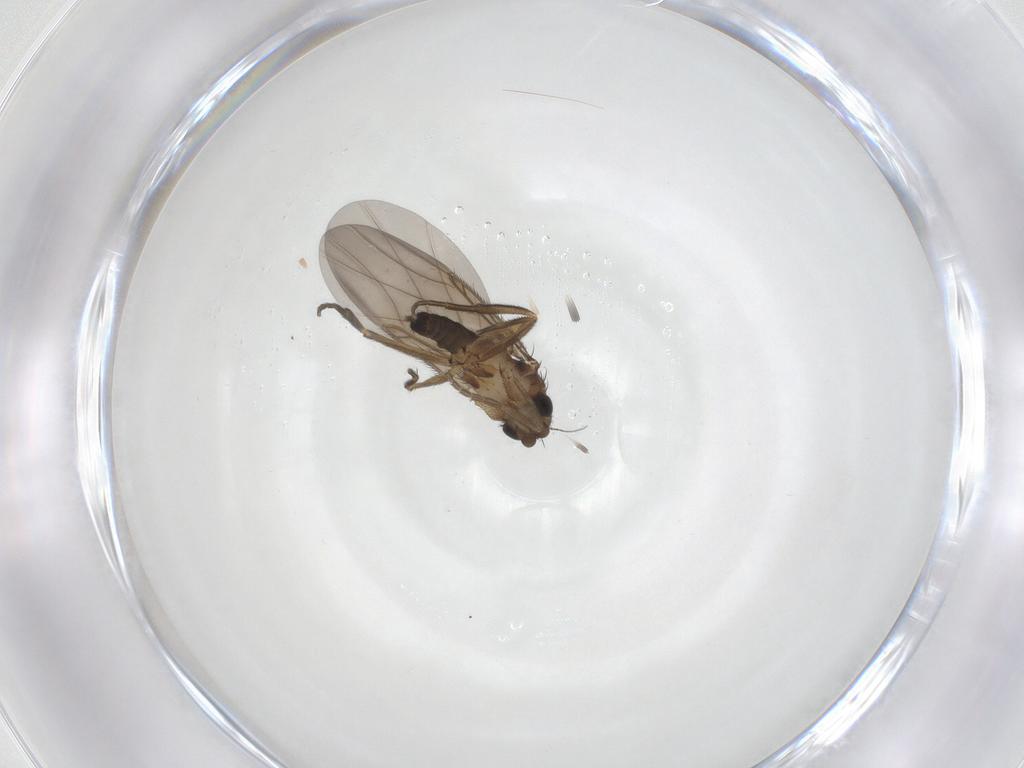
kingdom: Animalia
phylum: Arthropoda
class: Insecta
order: Diptera
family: Phoridae
